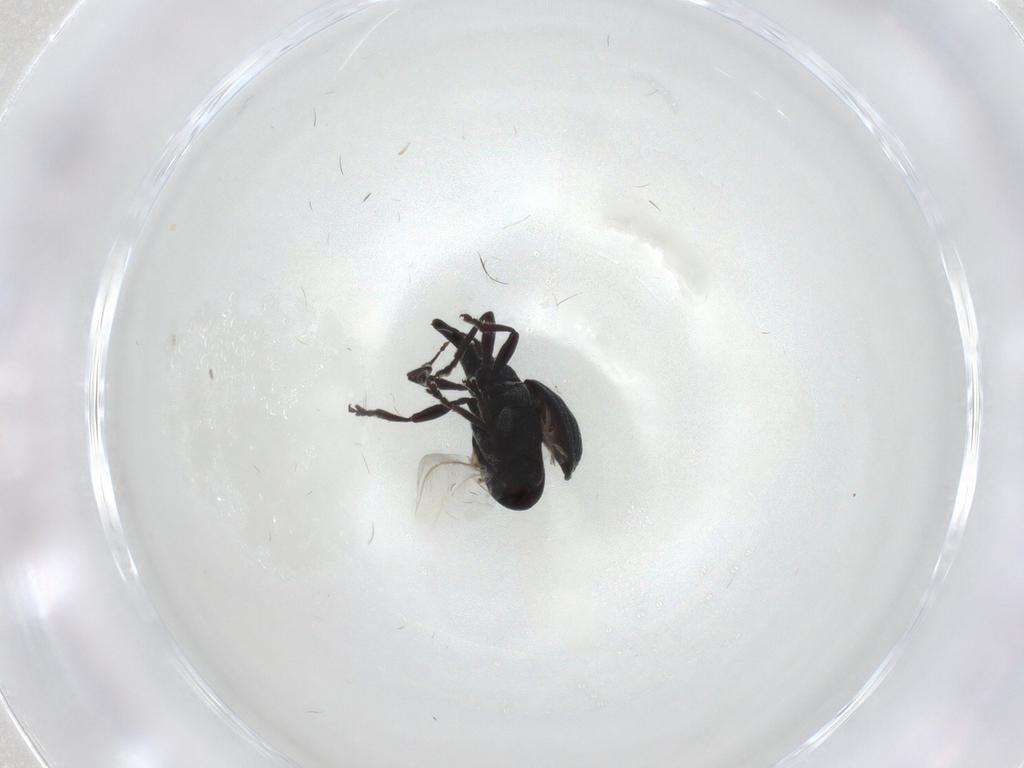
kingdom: Animalia
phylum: Arthropoda
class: Insecta
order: Coleoptera
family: Brentidae
